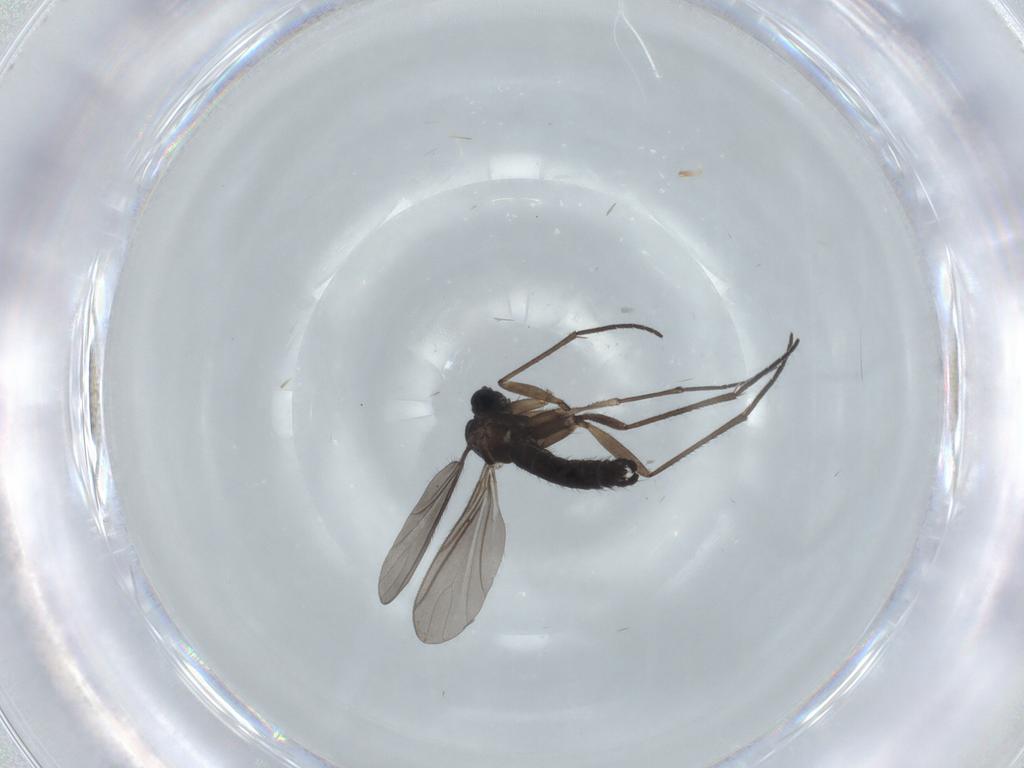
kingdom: Animalia
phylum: Arthropoda
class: Insecta
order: Diptera
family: Sciaridae
